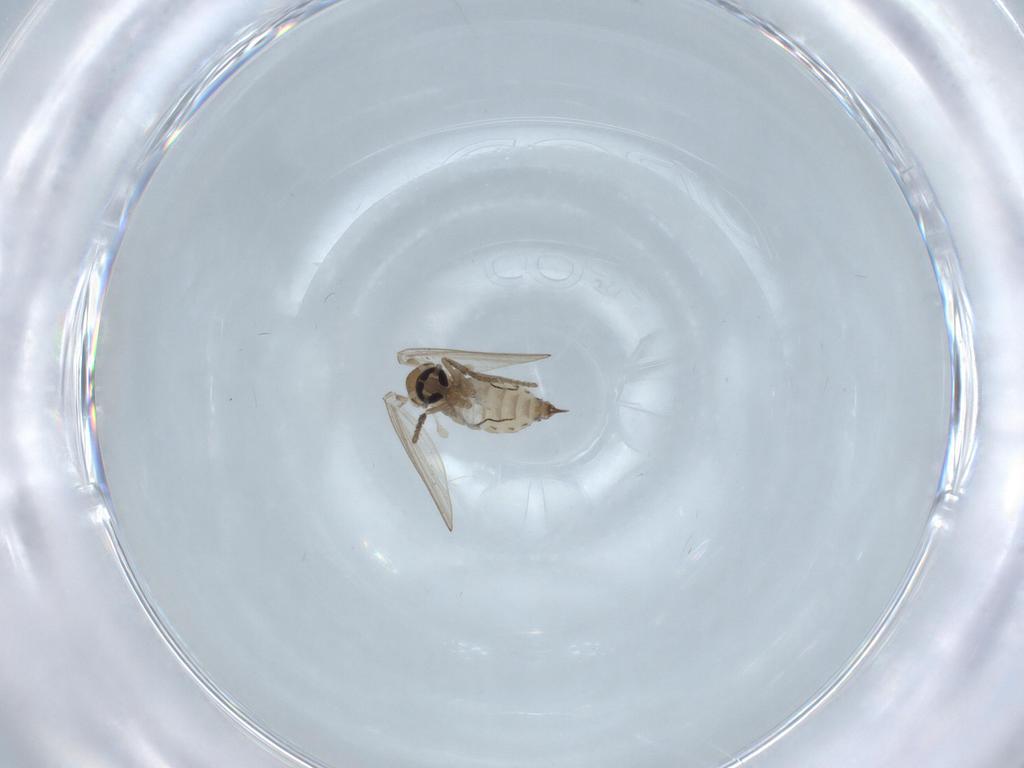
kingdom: Animalia
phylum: Arthropoda
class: Insecta
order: Diptera
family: Psychodidae
